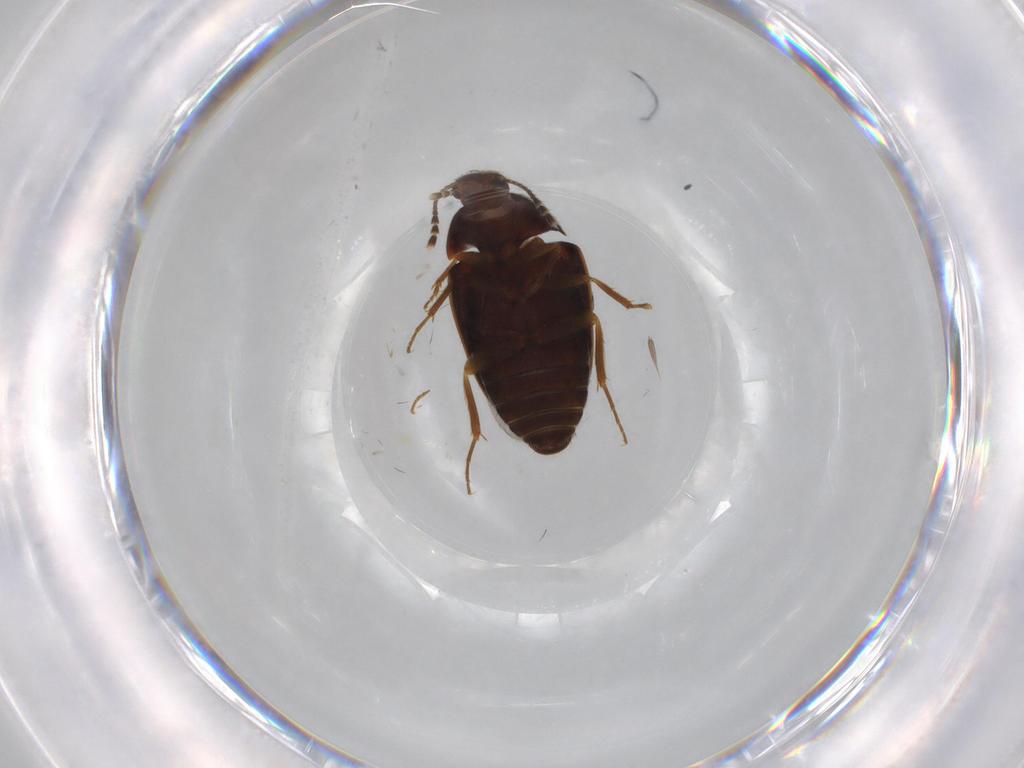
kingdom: Animalia
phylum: Arthropoda
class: Insecta
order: Coleoptera
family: Mycetophagidae
